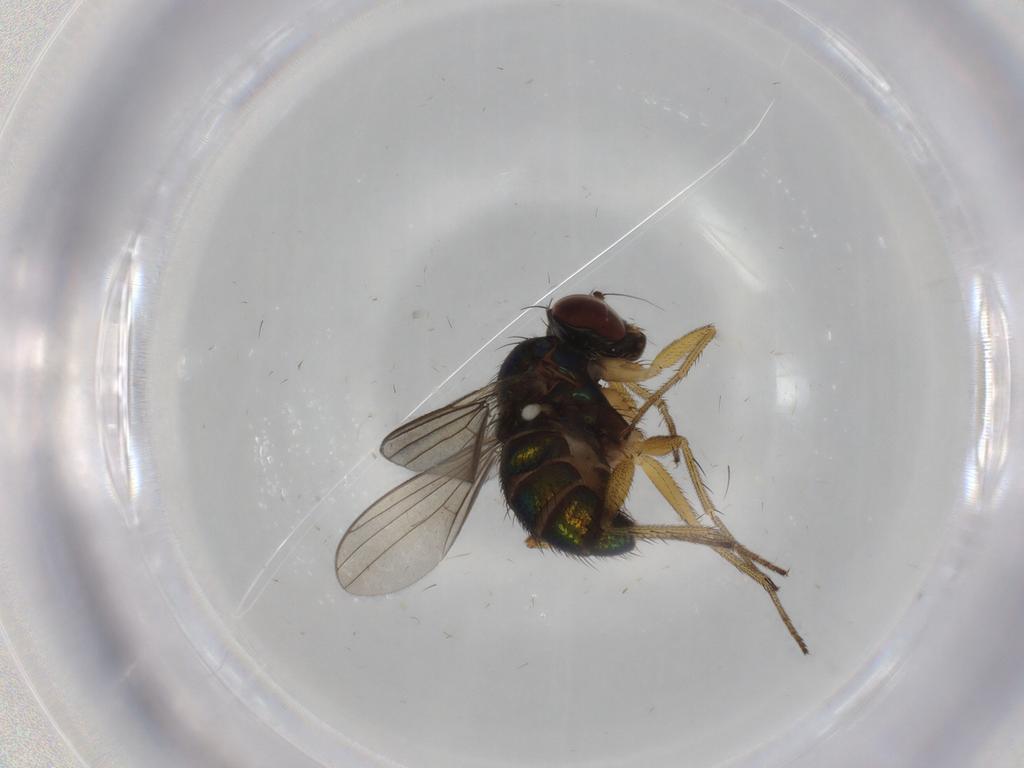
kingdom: Animalia
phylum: Arthropoda
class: Insecta
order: Diptera
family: Dolichopodidae
